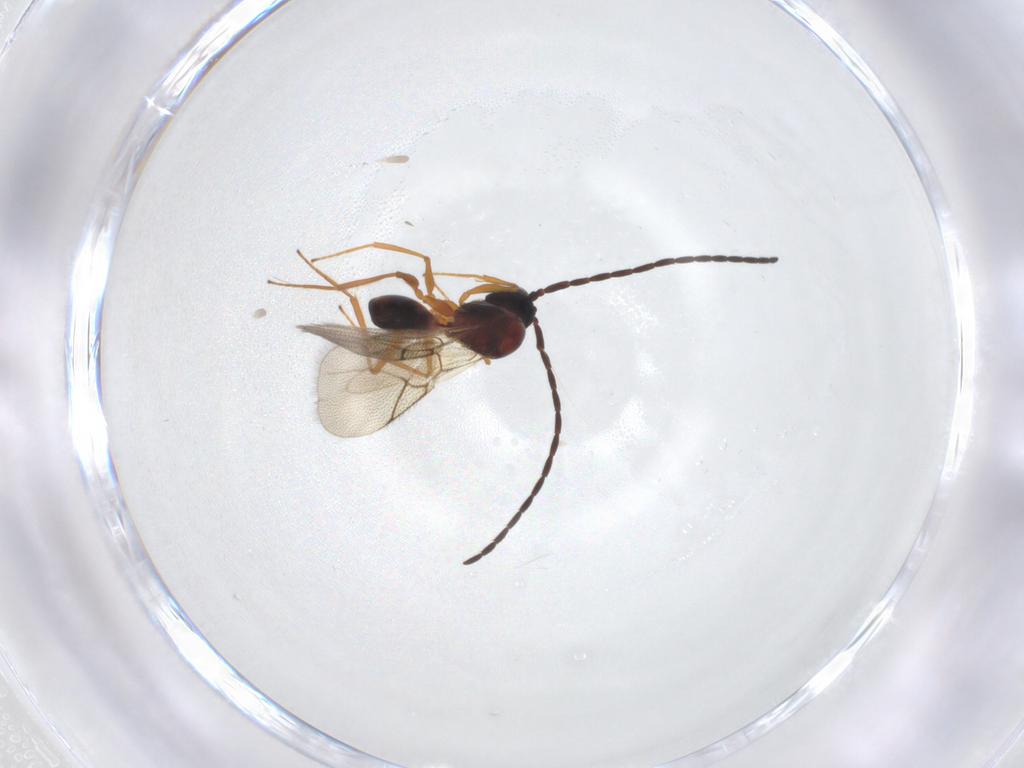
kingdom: Animalia
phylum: Arthropoda
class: Insecta
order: Hymenoptera
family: Figitidae
